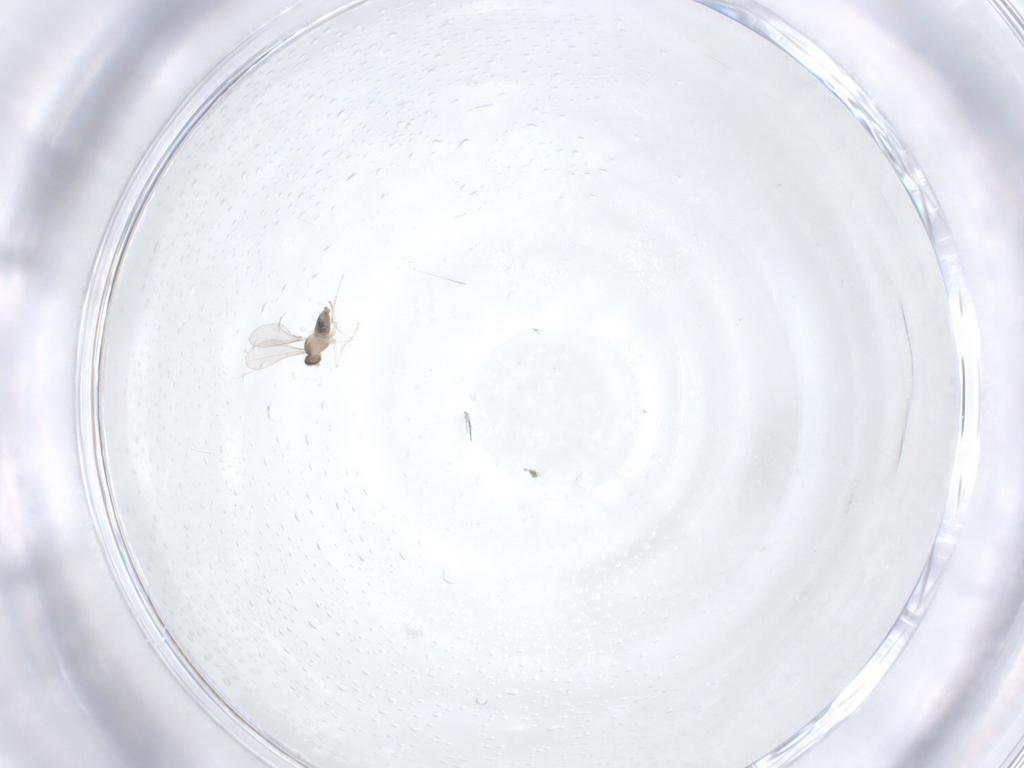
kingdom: Animalia
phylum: Arthropoda
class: Insecta
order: Diptera
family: Cecidomyiidae
